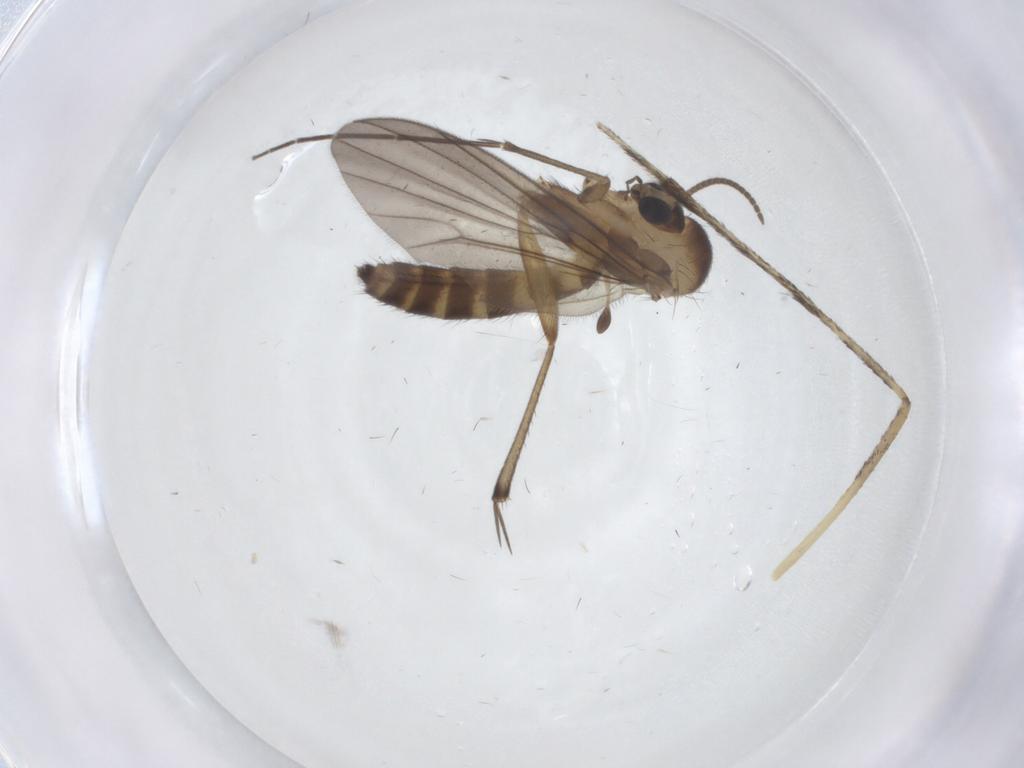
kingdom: Animalia
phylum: Arthropoda
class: Insecta
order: Diptera
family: Mycetophilidae
